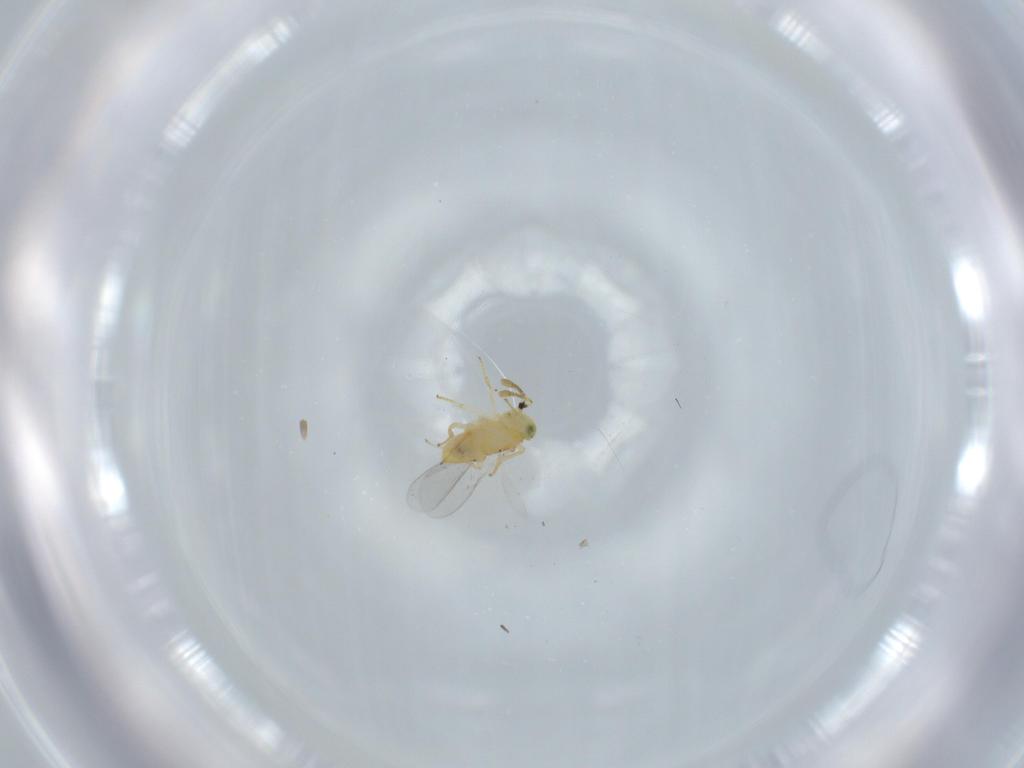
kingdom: Animalia
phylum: Arthropoda
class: Insecta
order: Hymenoptera
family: Encyrtidae
